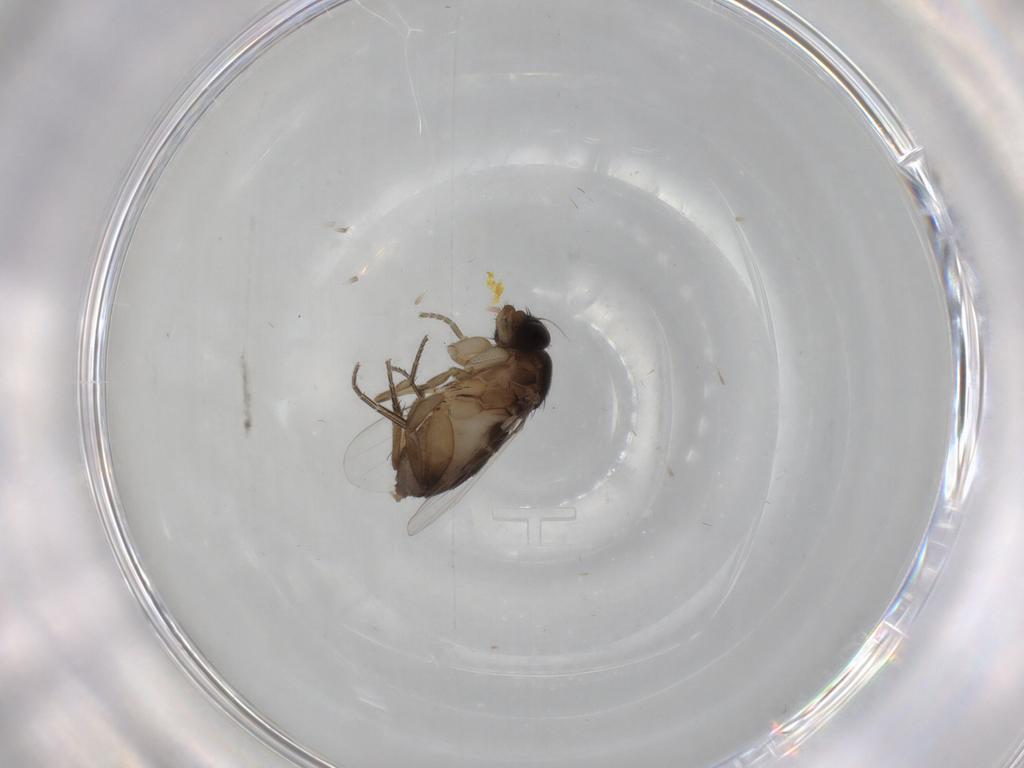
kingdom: Animalia
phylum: Arthropoda
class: Insecta
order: Diptera
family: Phoridae
